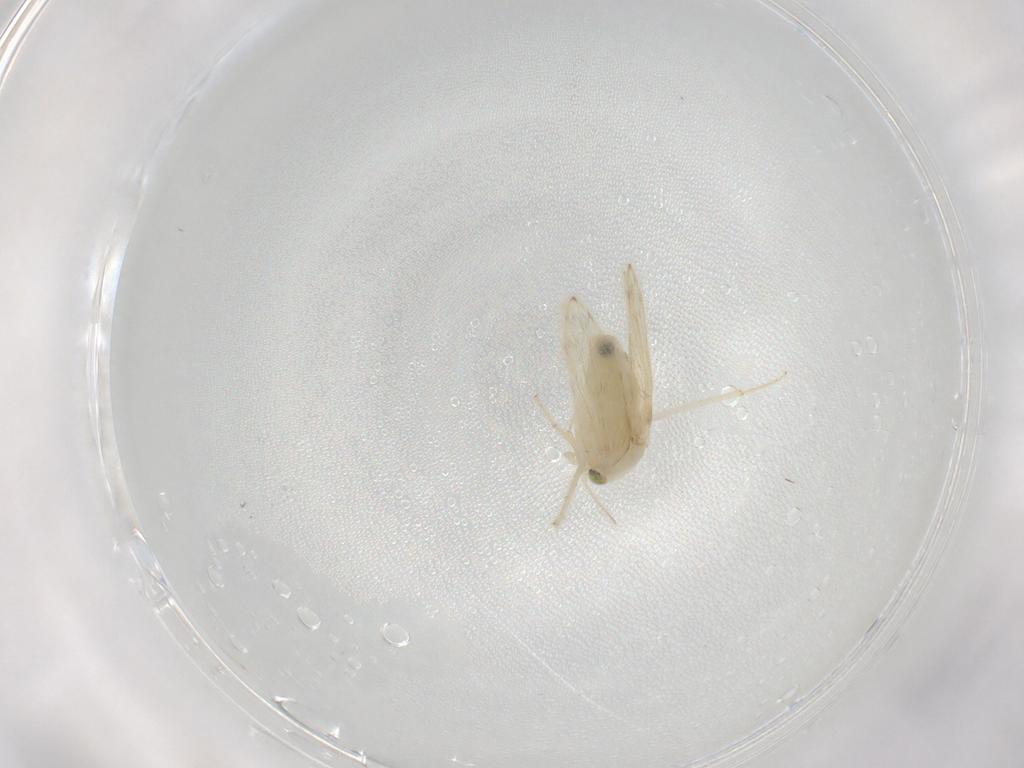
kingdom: Animalia
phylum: Arthropoda
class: Insecta
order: Psocodea
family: Lepidopsocidae
